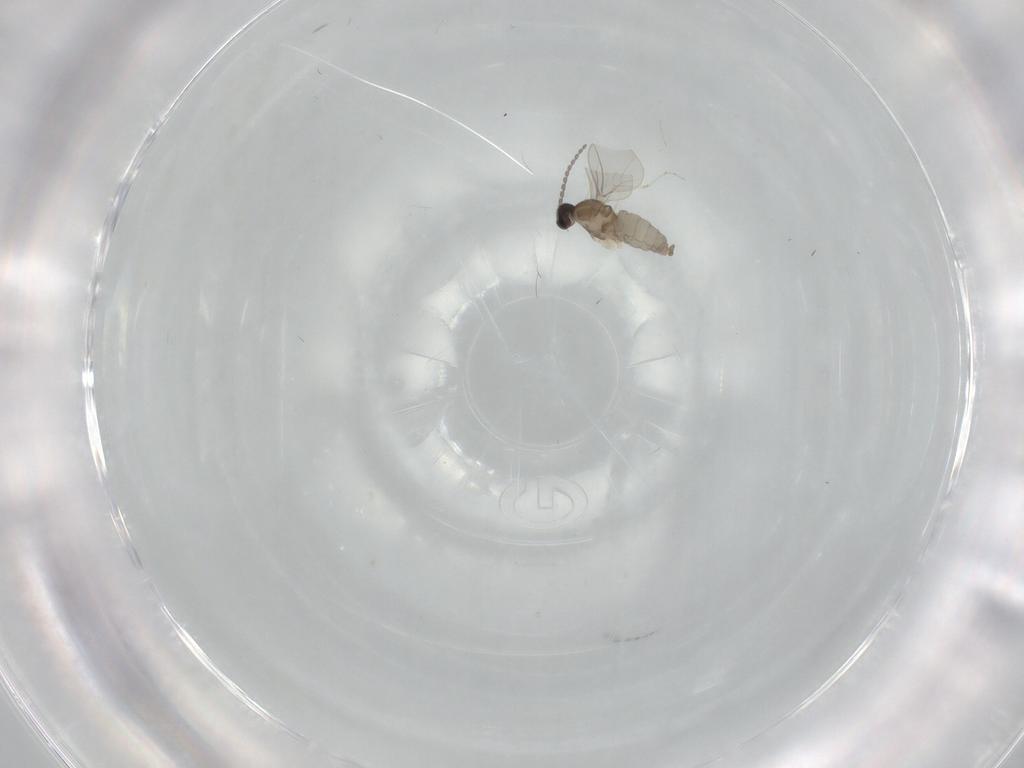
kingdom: Animalia
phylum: Arthropoda
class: Insecta
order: Diptera
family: Cecidomyiidae
